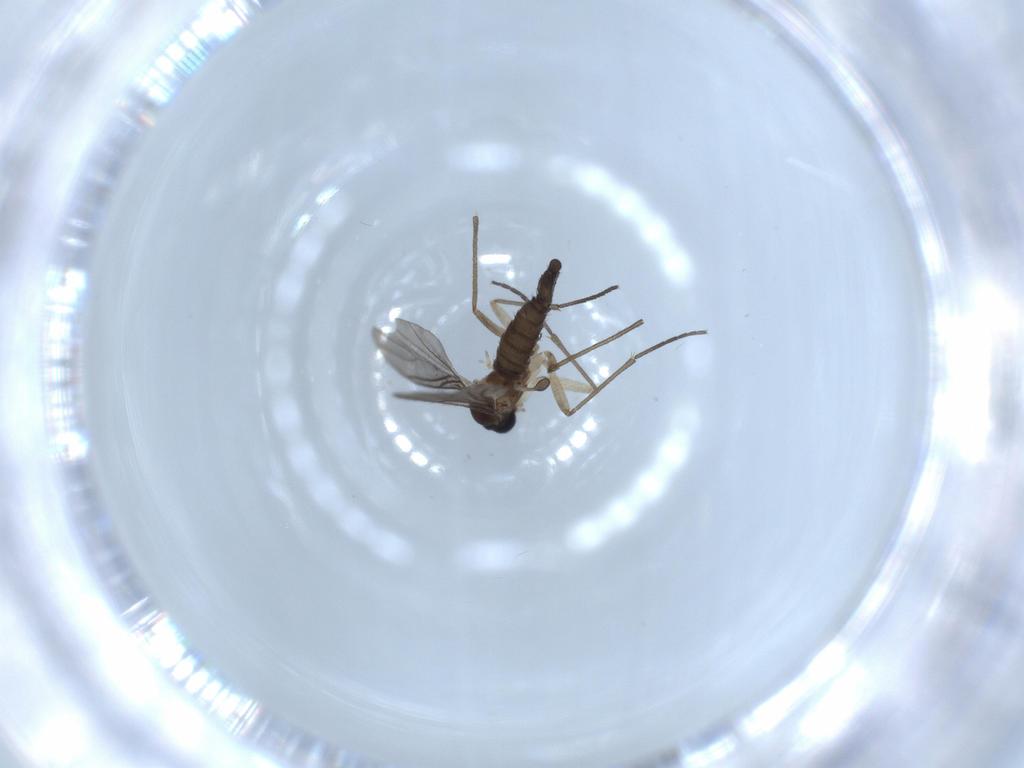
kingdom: Animalia
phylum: Arthropoda
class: Insecta
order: Diptera
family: Sciaridae
